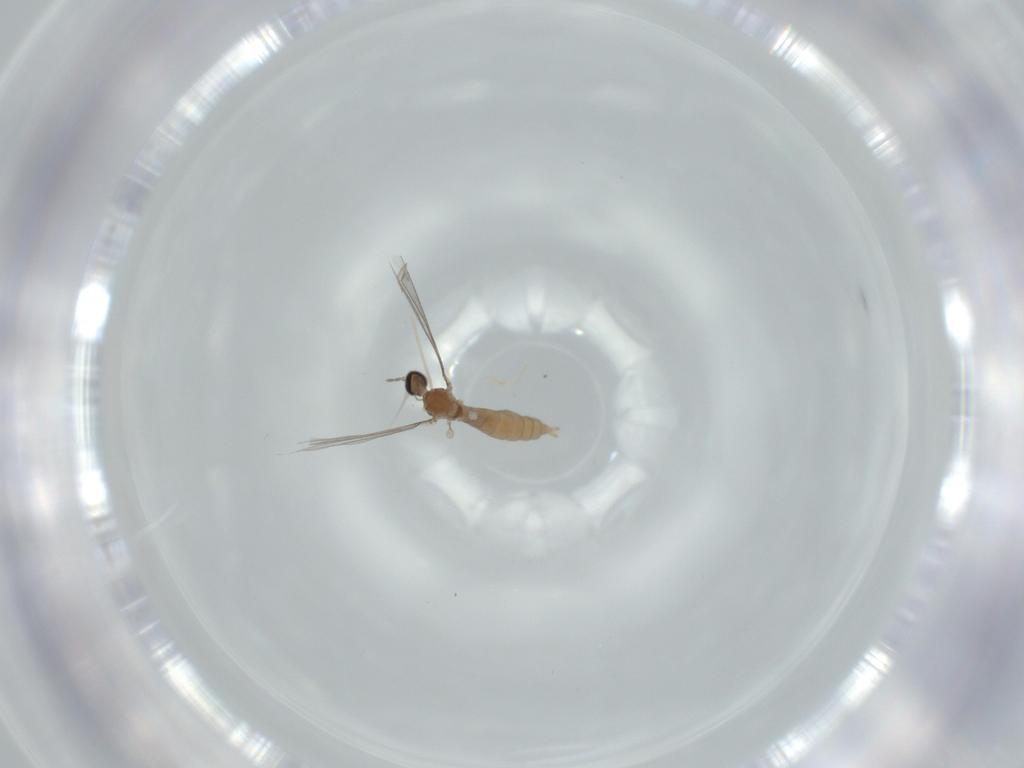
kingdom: Animalia
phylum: Arthropoda
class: Insecta
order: Diptera
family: Cecidomyiidae
